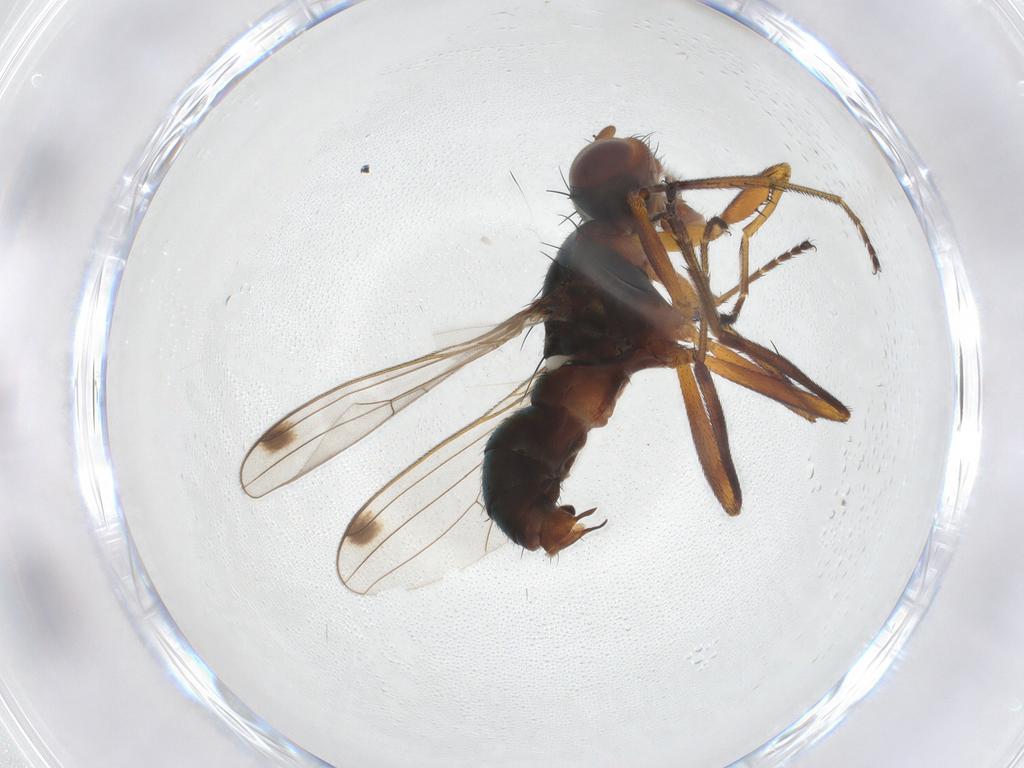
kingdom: Animalia
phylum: Arthropoda
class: Insecta
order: Diptera
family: Sepsidae
